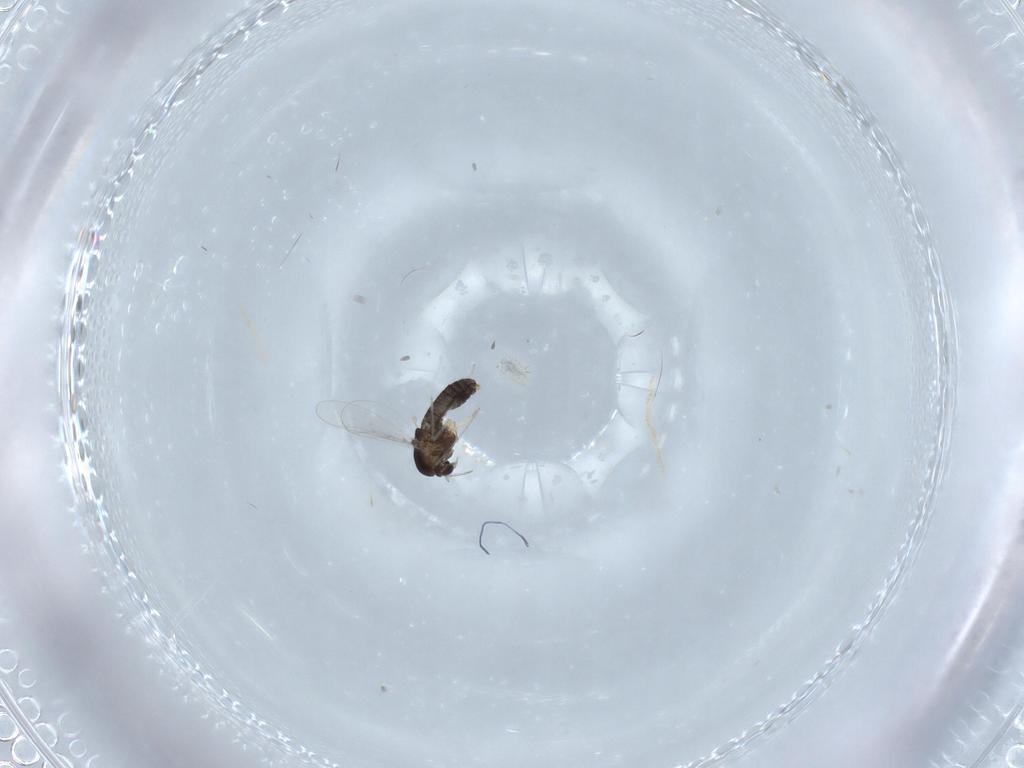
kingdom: Animalia
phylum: Arthropoda
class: Insecta
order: Diptera
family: Chironomidae
